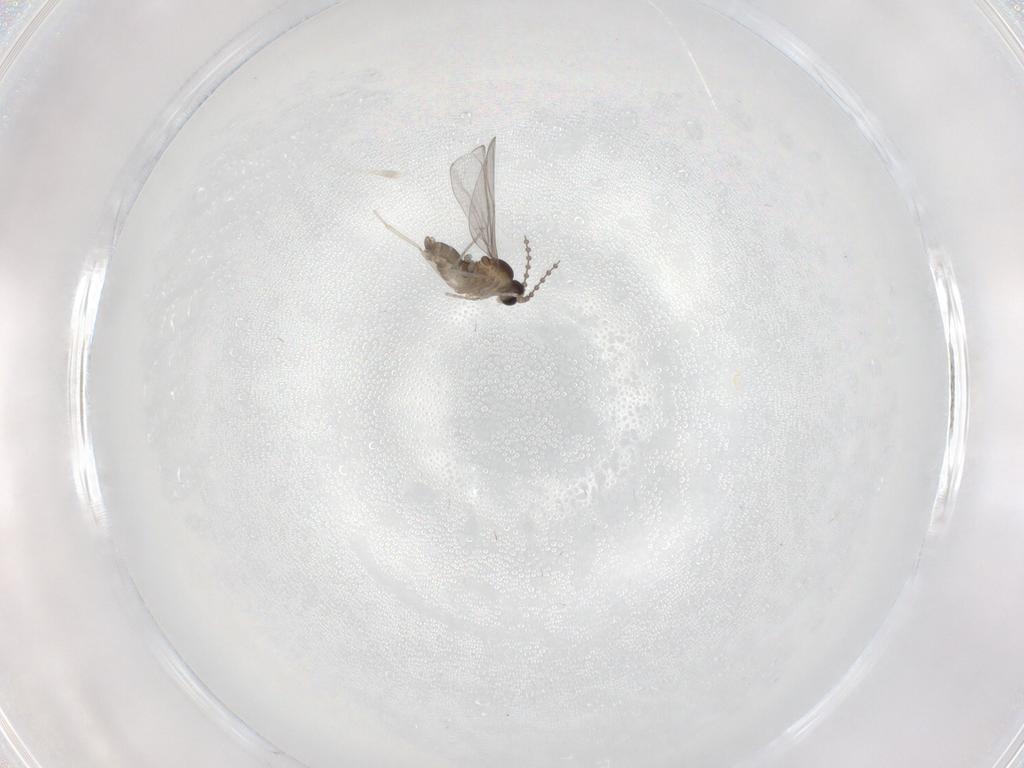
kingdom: Animalia
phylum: Arthropoda
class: Insecta
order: Diptera
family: Cecidomyiidae
